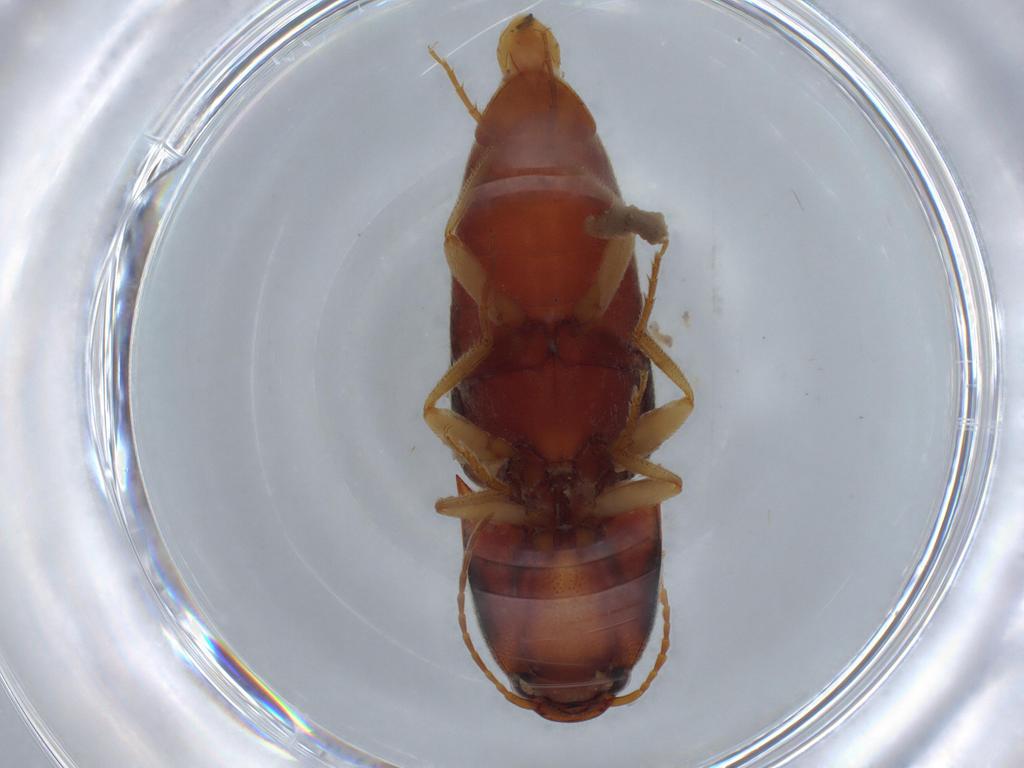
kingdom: Animalia
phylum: Arthropoda
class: Insecta
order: Coleoptera
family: Elateridae
